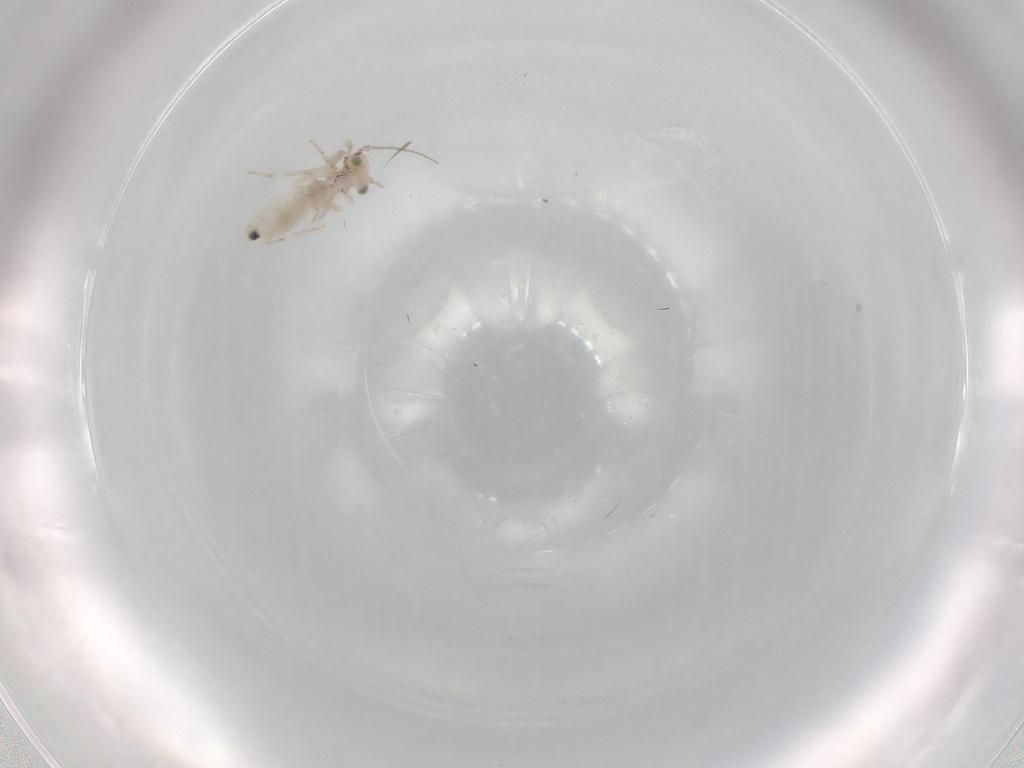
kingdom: Animalia
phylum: Arthropoda
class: Insecta
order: Psocodea
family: Lepidopsocidae
